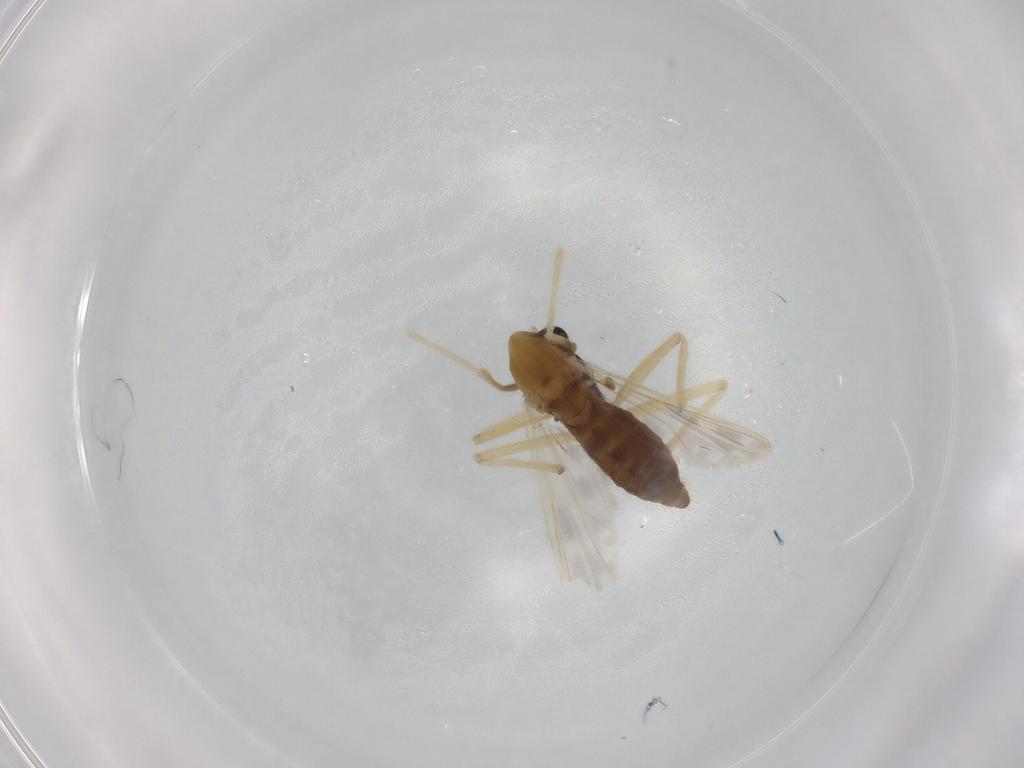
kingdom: Animalia
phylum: Arthropoda
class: Insecta
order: Diptera
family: Chironomidae
